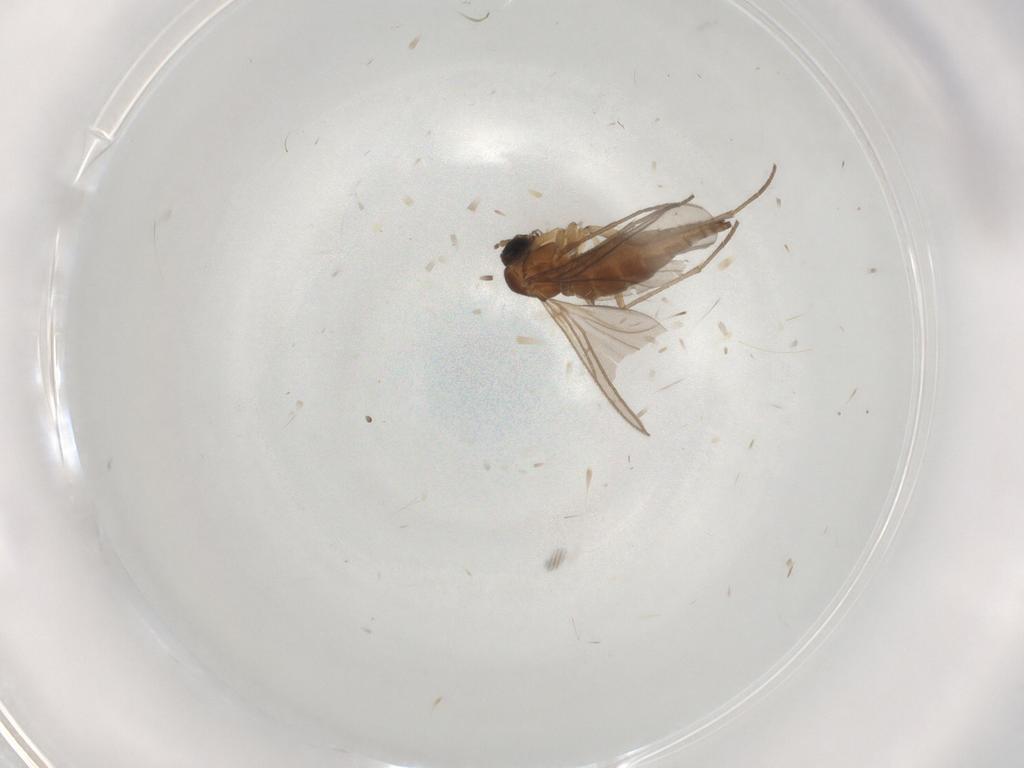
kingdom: Animalia
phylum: Arthropoda
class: Insecta
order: Diptera
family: Sciaridae
